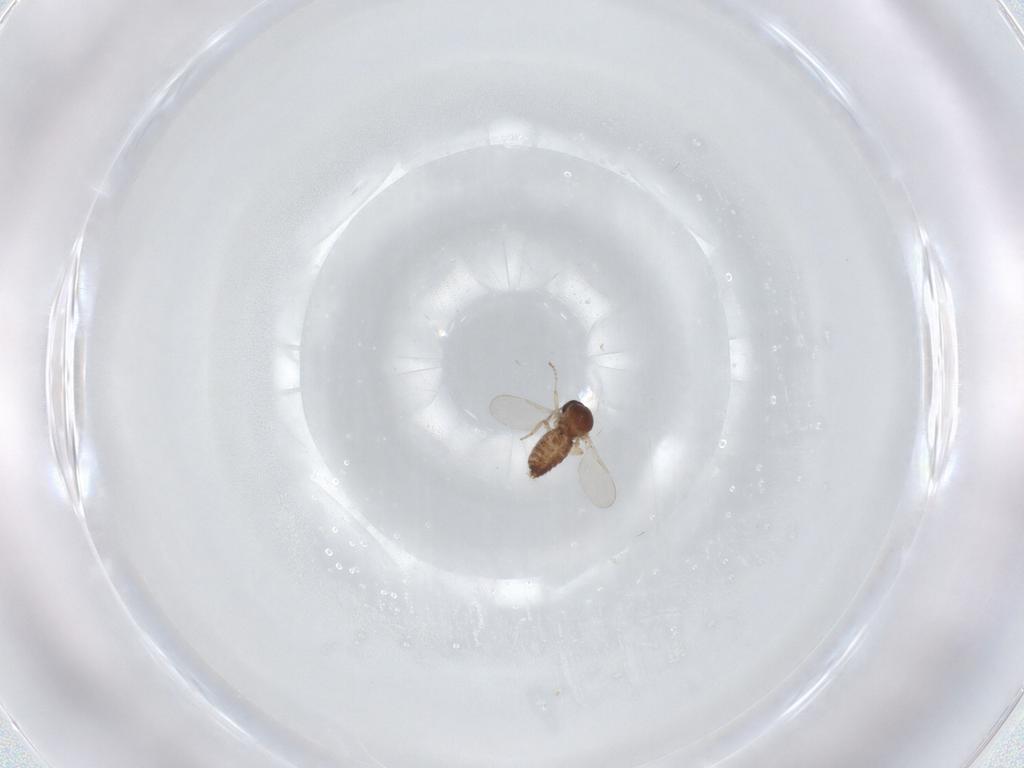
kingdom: Animalia
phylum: Arthropoda
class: Insecta
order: Diptera
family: Ceratopogonidae
